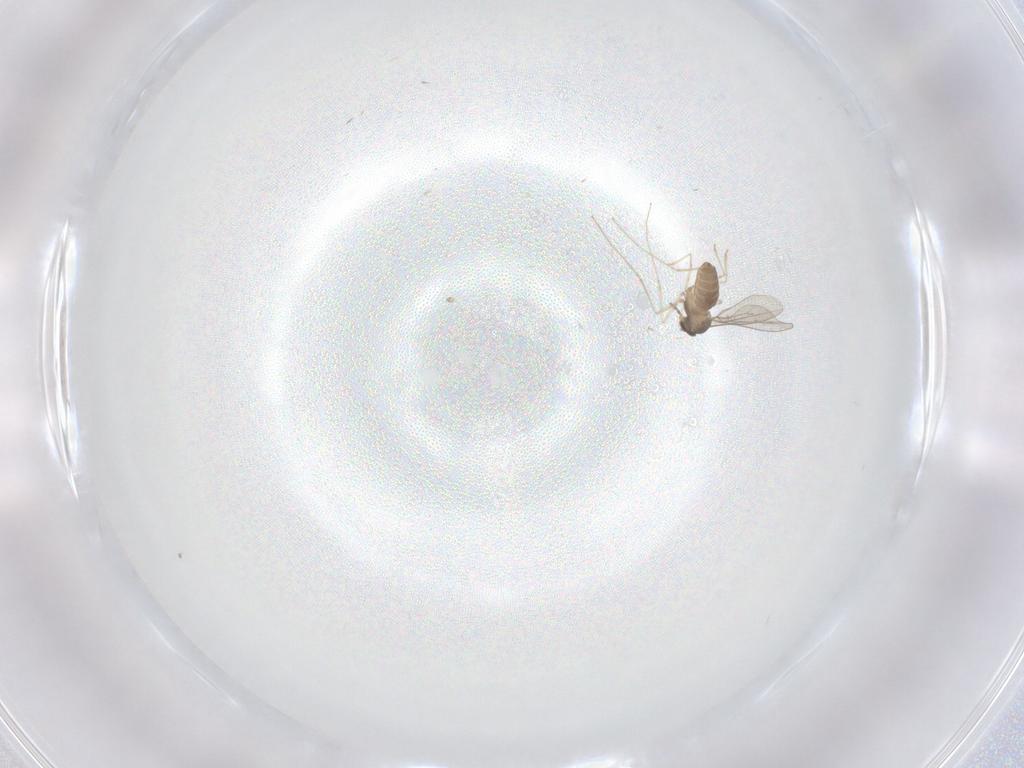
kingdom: Animalia
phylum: Arthropoda
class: Insecta
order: Diptera
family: Cecidomyiidae
